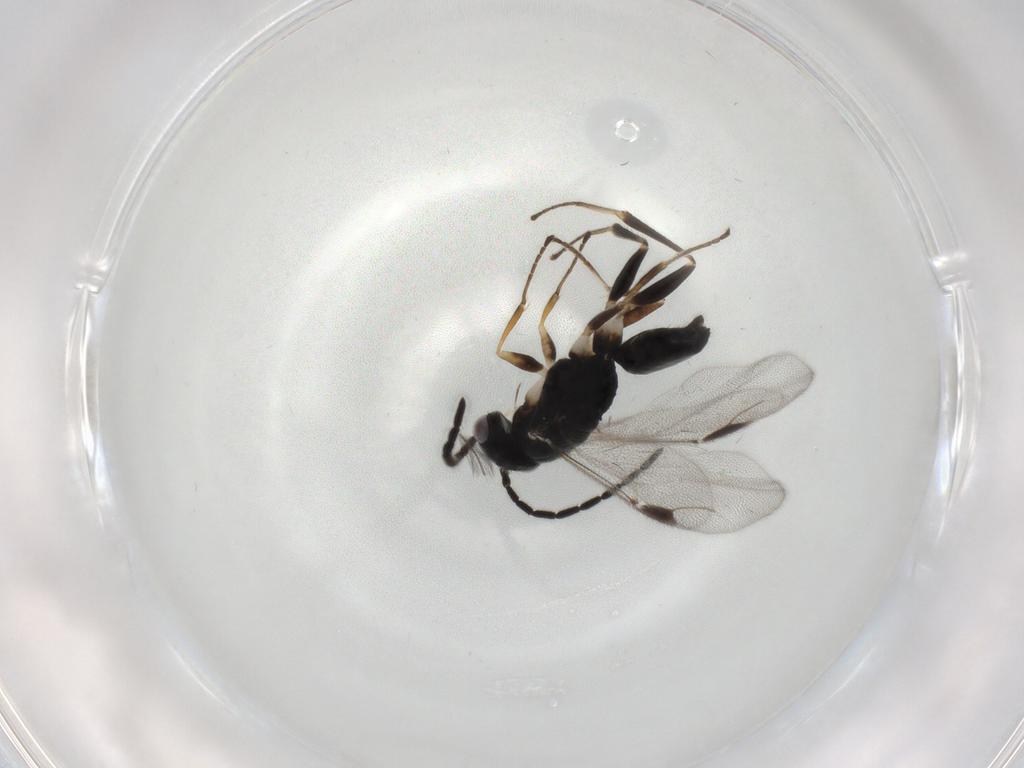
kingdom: Animalia
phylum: Arthropoda
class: Insecta
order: Hymenoptera
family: Dryinidae
